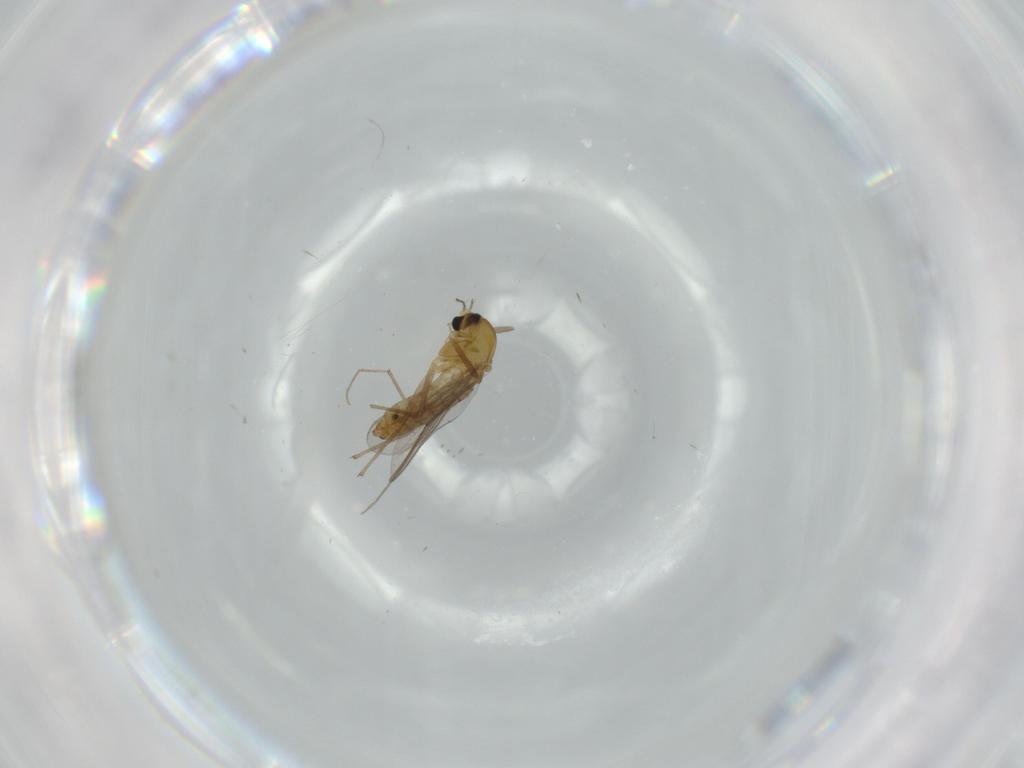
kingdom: Animalia
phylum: Arthropoda
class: Insecta
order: Diptera
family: Chironomidae
